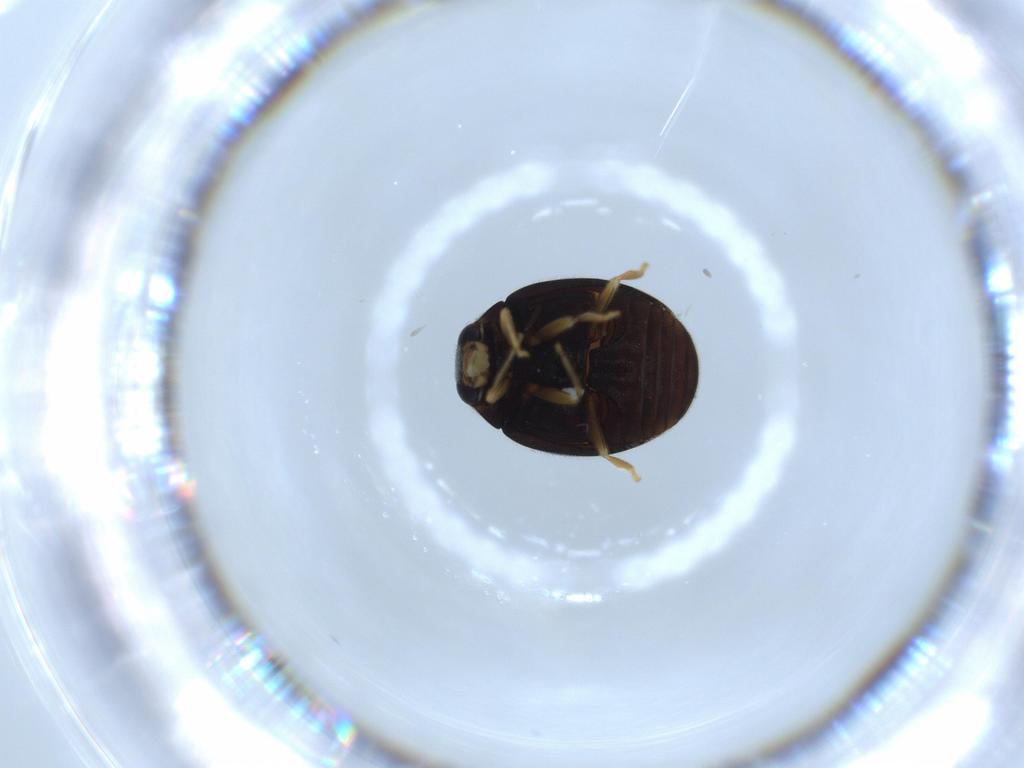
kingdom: Animalia
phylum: Arthropoda
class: Insecta
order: Coleoptera
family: Coccinellidae
